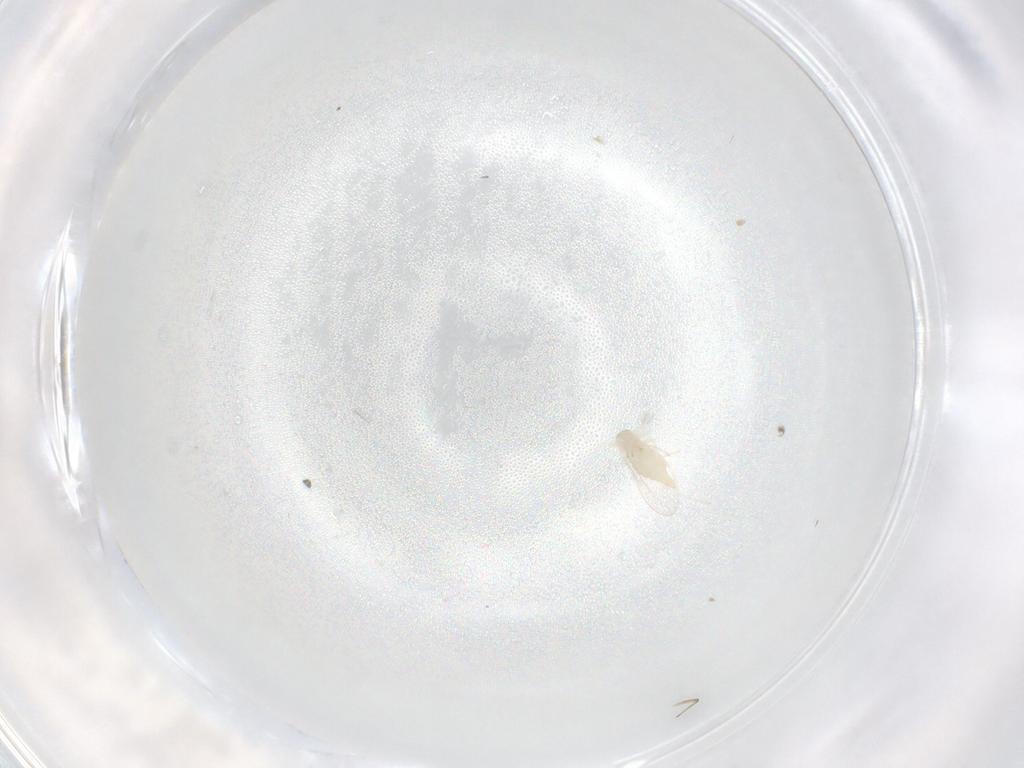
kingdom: Animalia
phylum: Arthropoda
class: Insecta
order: Diptera
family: Cecidomyiidae
